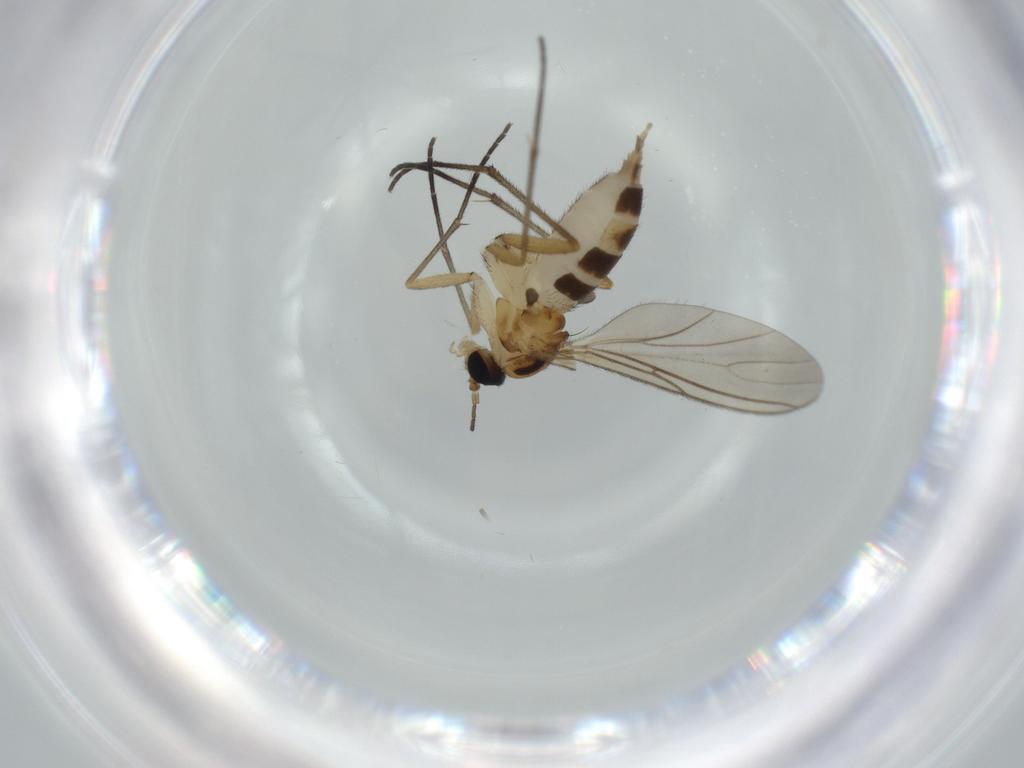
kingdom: Animalia
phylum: Arthropoda
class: Insecta
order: Diptera
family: Sciaridae
